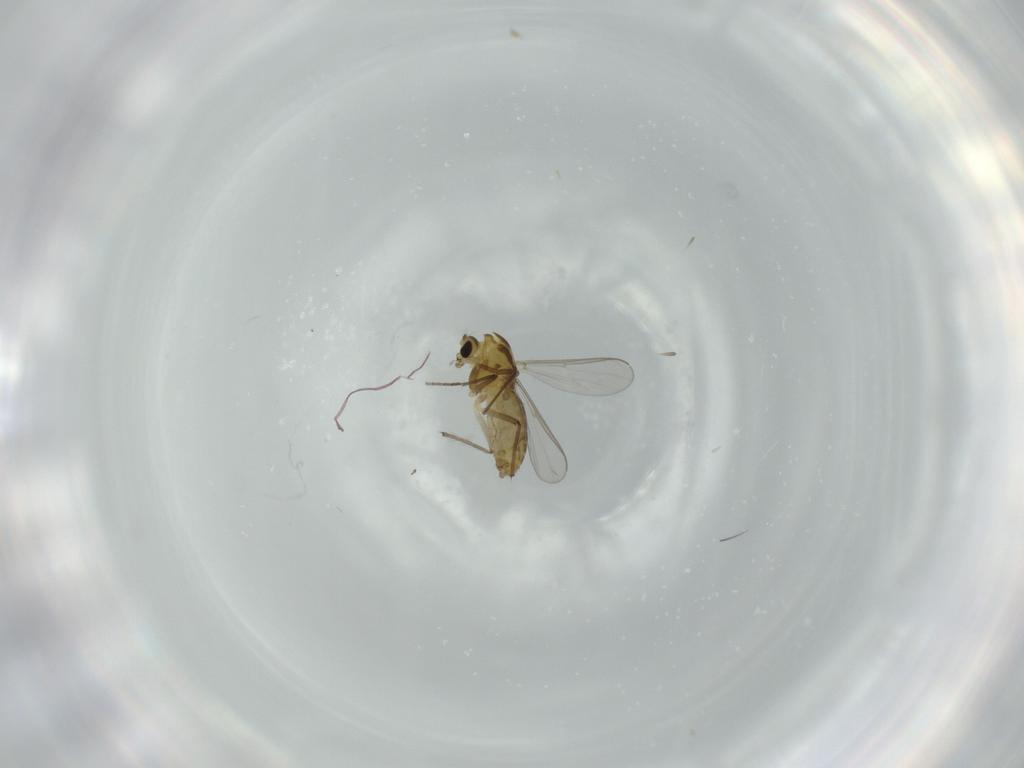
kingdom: Animalia
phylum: Arthropoda
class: Insecta
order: Diptera
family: Chironomidae
